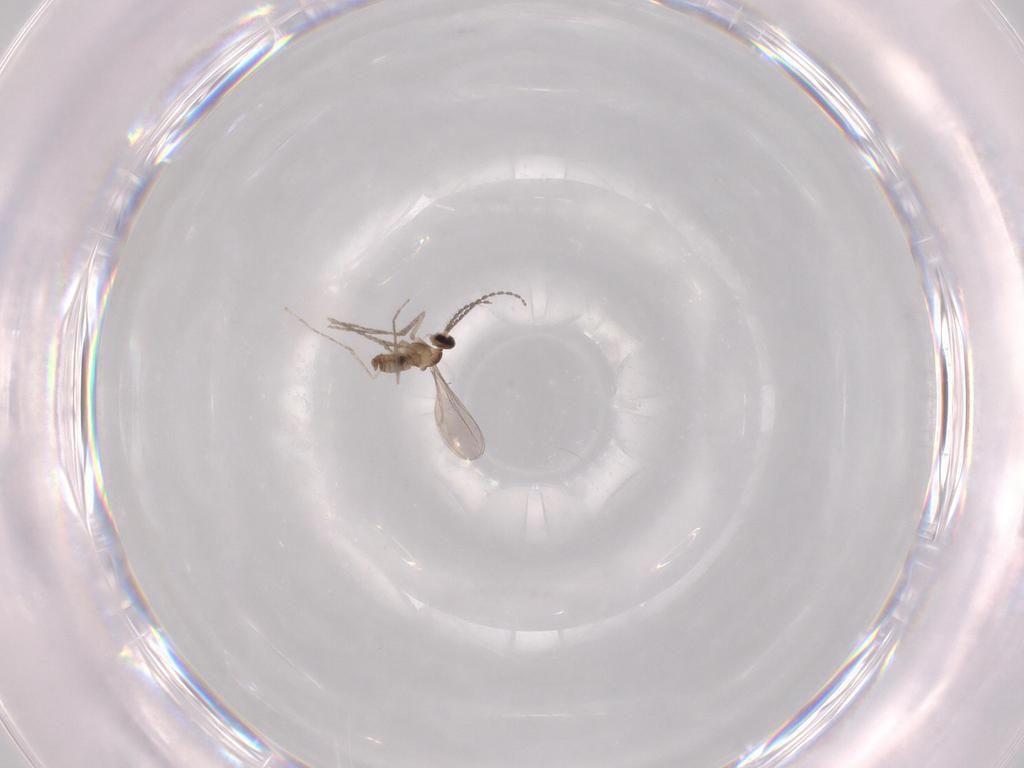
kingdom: Animalia
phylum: Arthropoda
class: Insecta
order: Diptera
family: Cecidomyiidae
